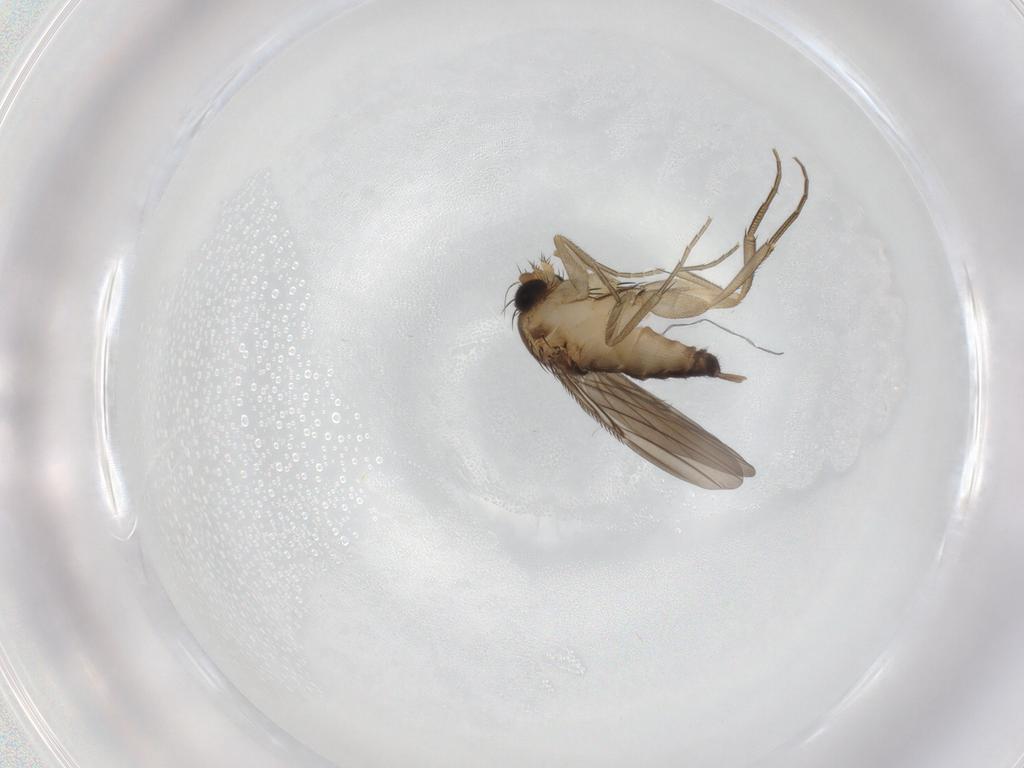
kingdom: Animalia
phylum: Arthropoda
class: Insecta
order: Diptera
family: Phoridae
